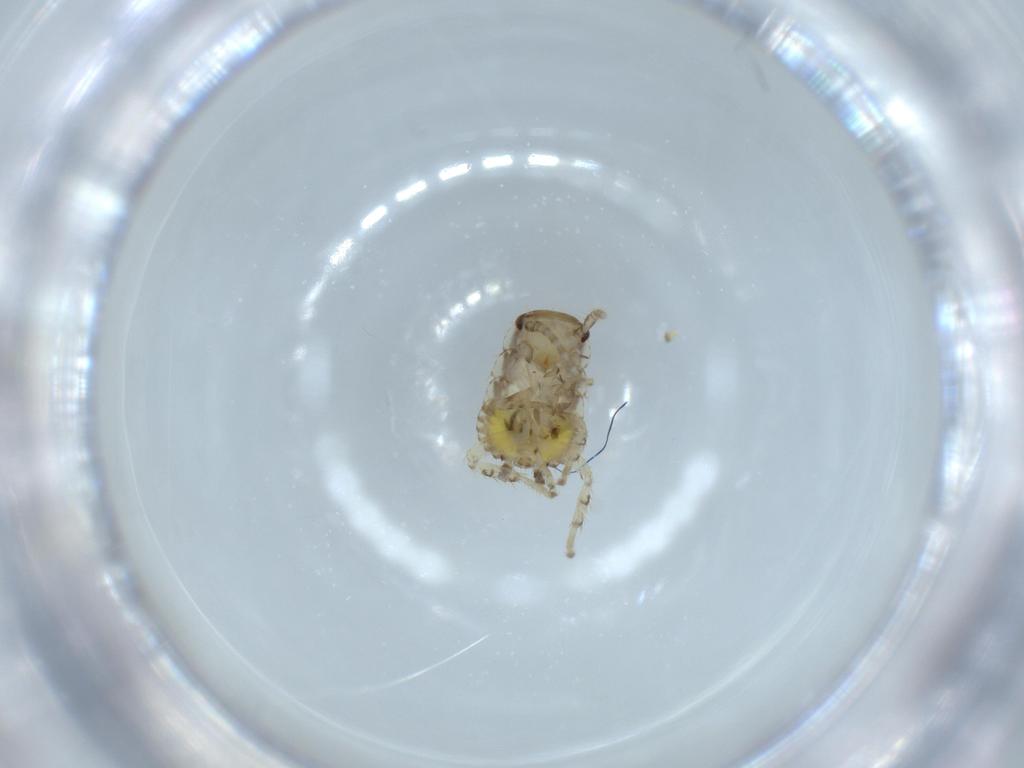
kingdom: Animalia
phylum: Arthropoda
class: Insecta
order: Blattodea
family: Ectobiidae
